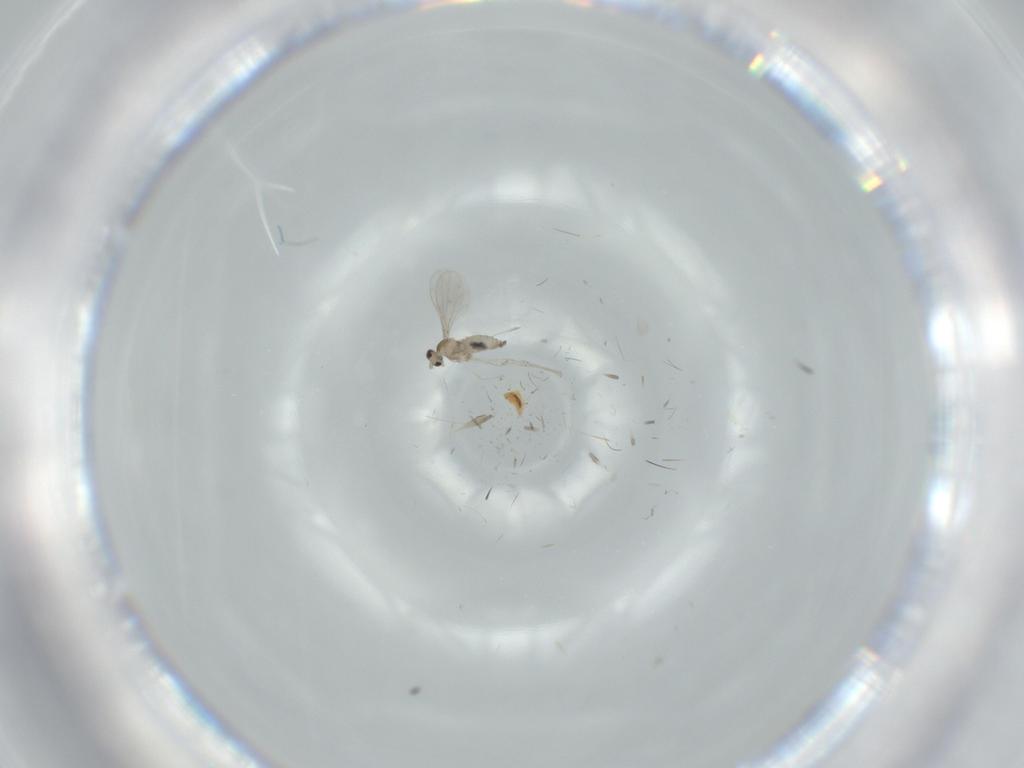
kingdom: Animalia
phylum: Arthropoda
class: Insecta
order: Diptera
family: Cecidomyiidae
